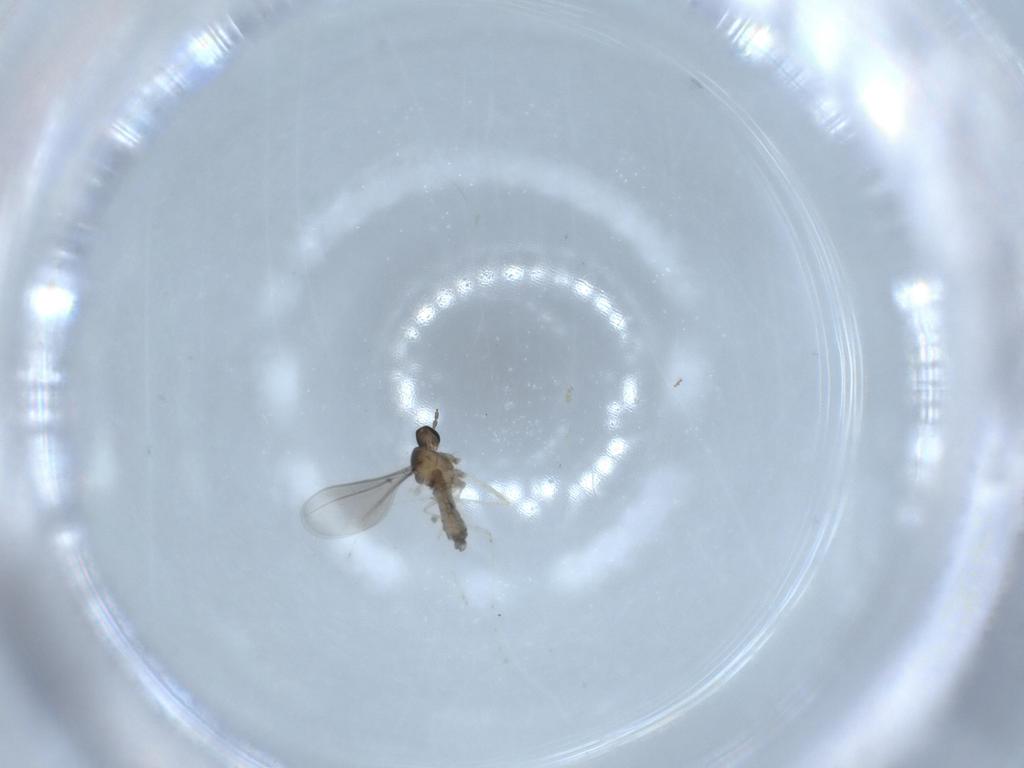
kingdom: Animalia
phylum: Arthropoda
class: Insecta
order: Diptera
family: Cecidomyiidae
